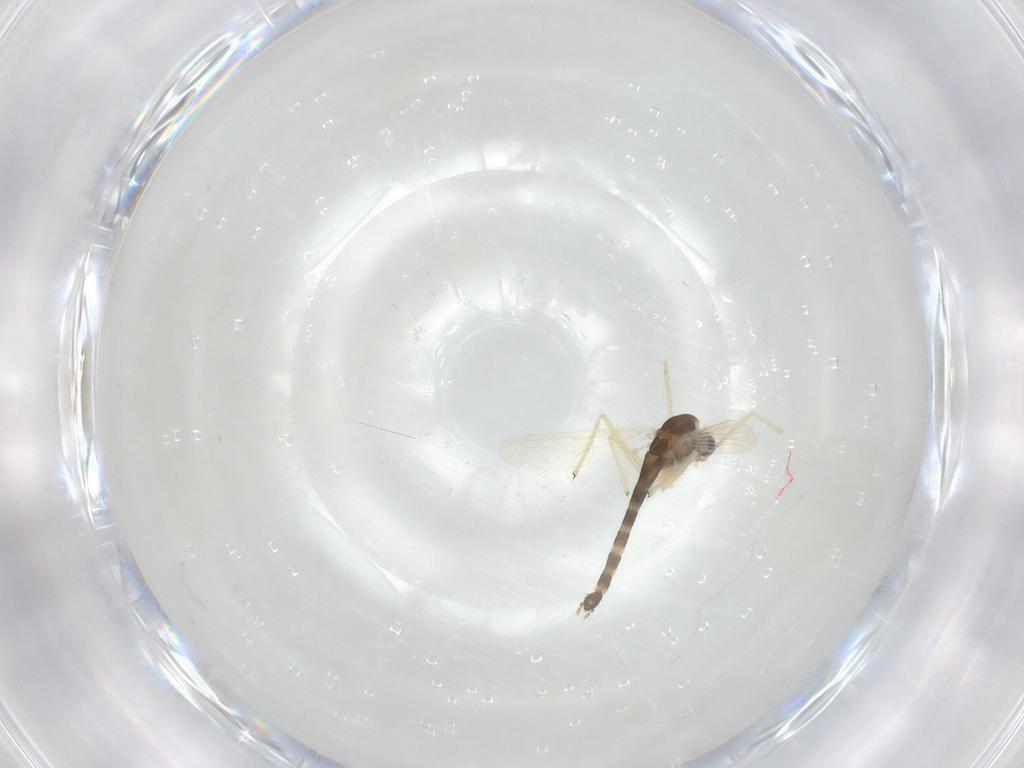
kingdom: Animalia
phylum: Arthropoda
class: Insecta
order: Diptera
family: Chironomidae
